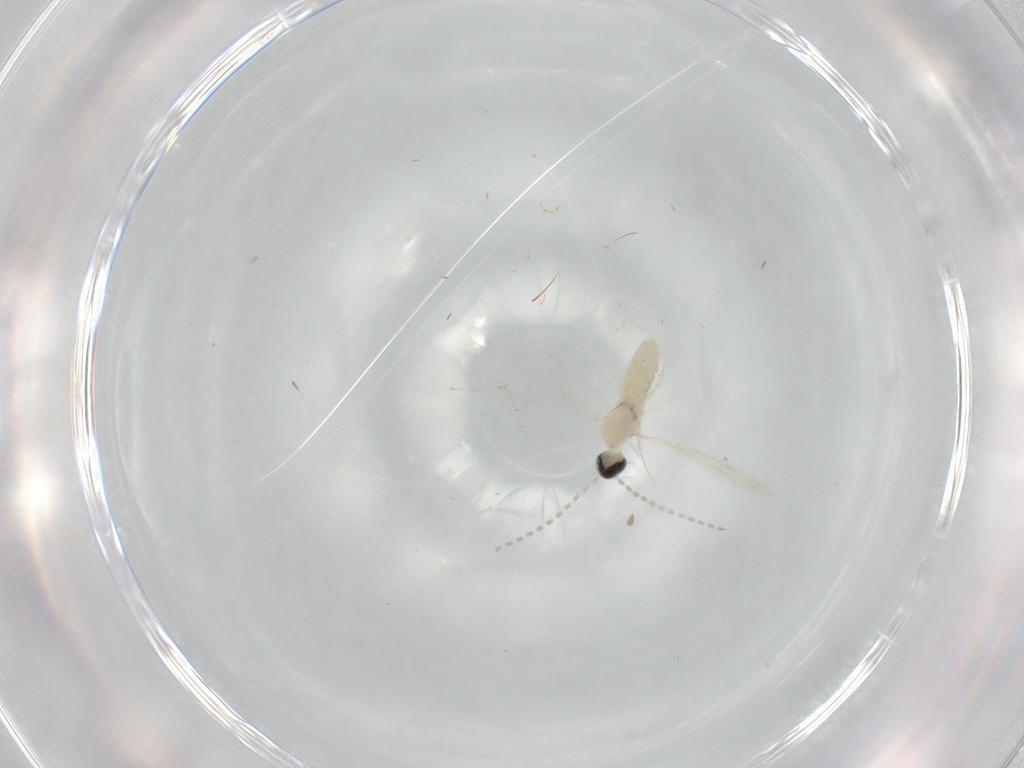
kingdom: Animalia
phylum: Arthropoda
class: Insecta
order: Diptera
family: Cecidomyiidae
